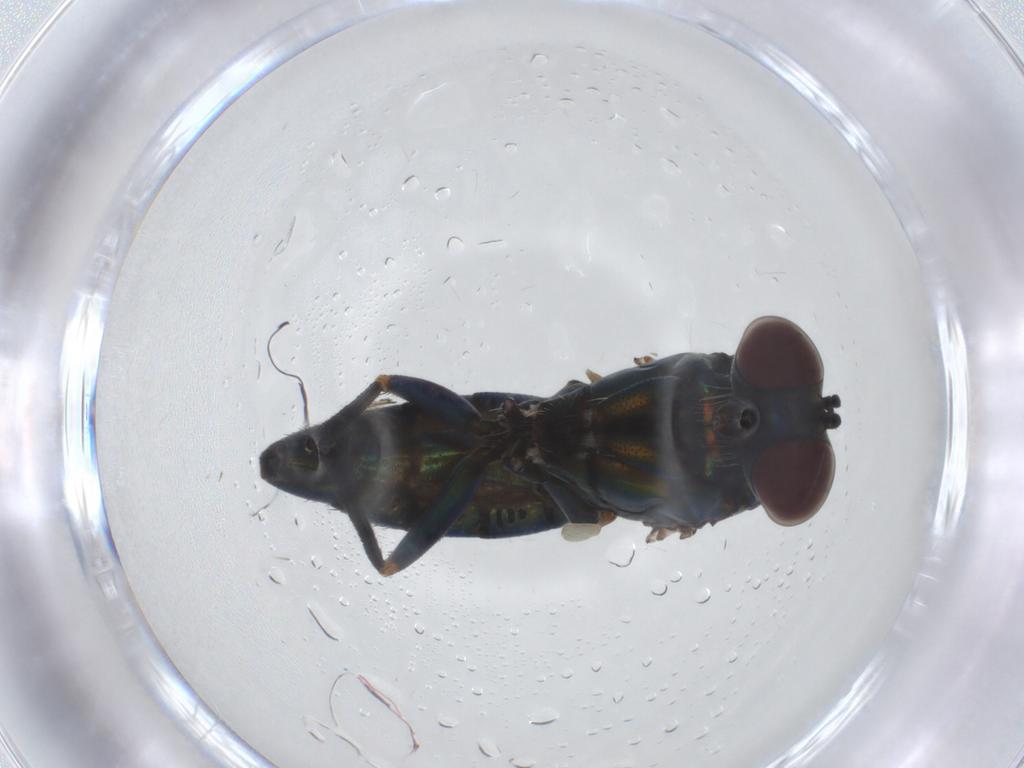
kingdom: Animalia
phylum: Arthropoda
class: Insecta
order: Diptera
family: Dolichopodidae
